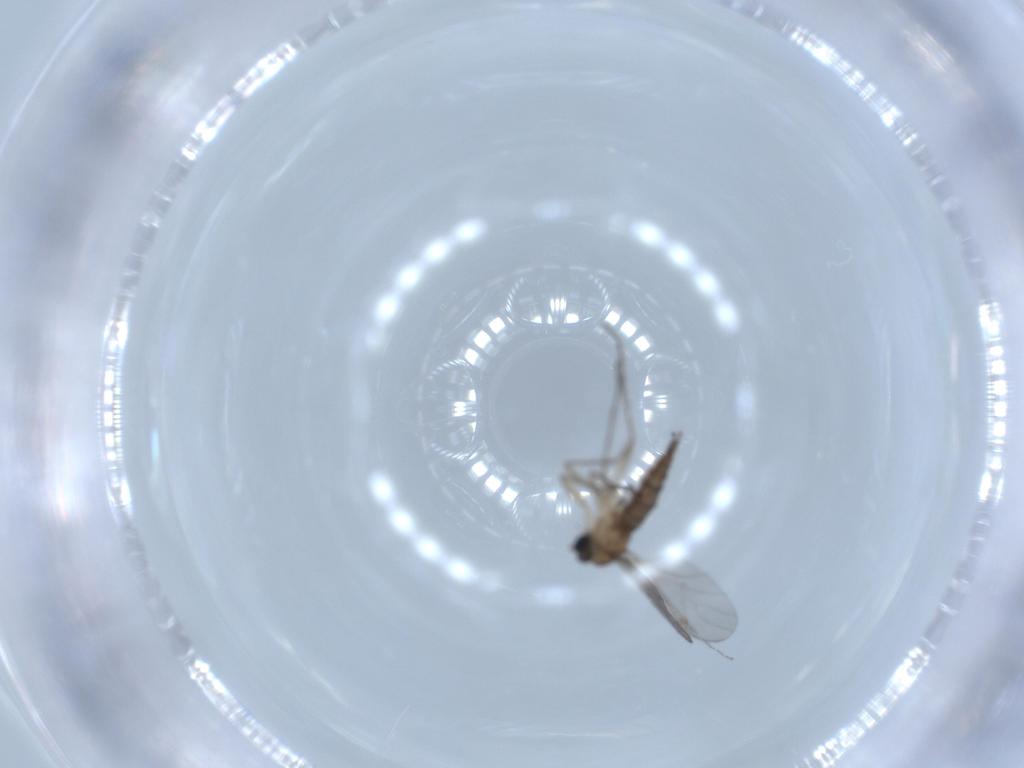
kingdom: Animalia
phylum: Arthropoda
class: Insecta
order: Diptera
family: Sciaridae
